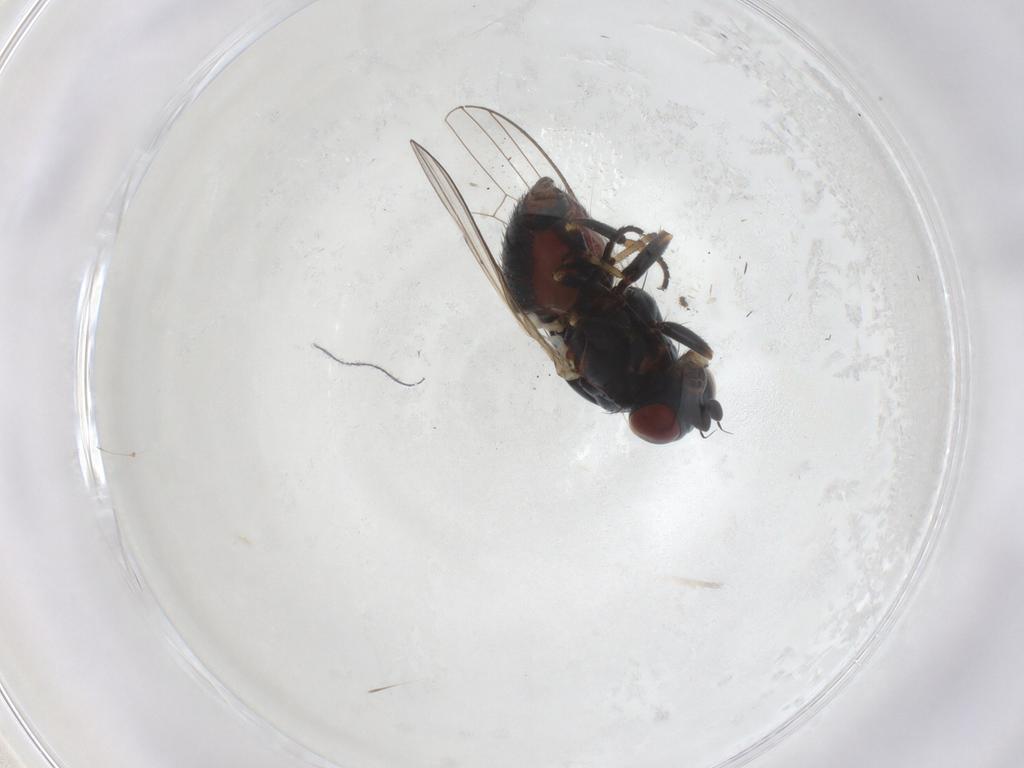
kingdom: Animalia
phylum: Arthropoda
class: Insecta
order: Diptera
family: Chamaemyiidae
